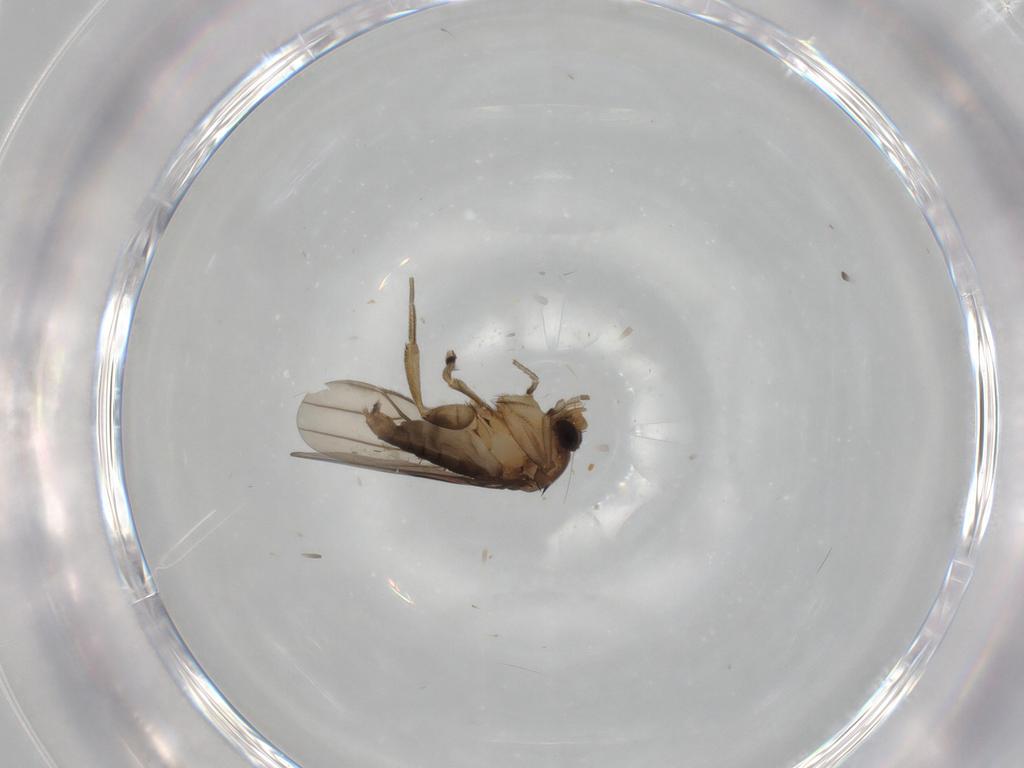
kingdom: Animalia
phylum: Arthropoda
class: Insecta
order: Diptera
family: Phoridae
